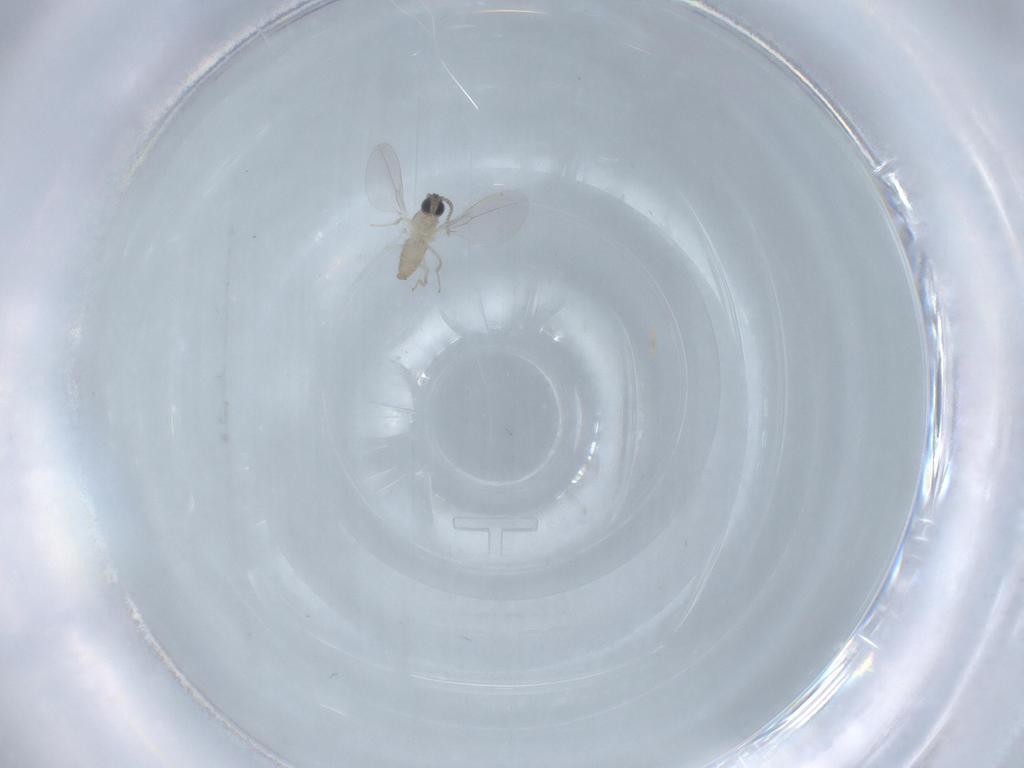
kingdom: Animalia
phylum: Arthropoda
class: Insecta
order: Diptera
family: Cecidomyiidae
